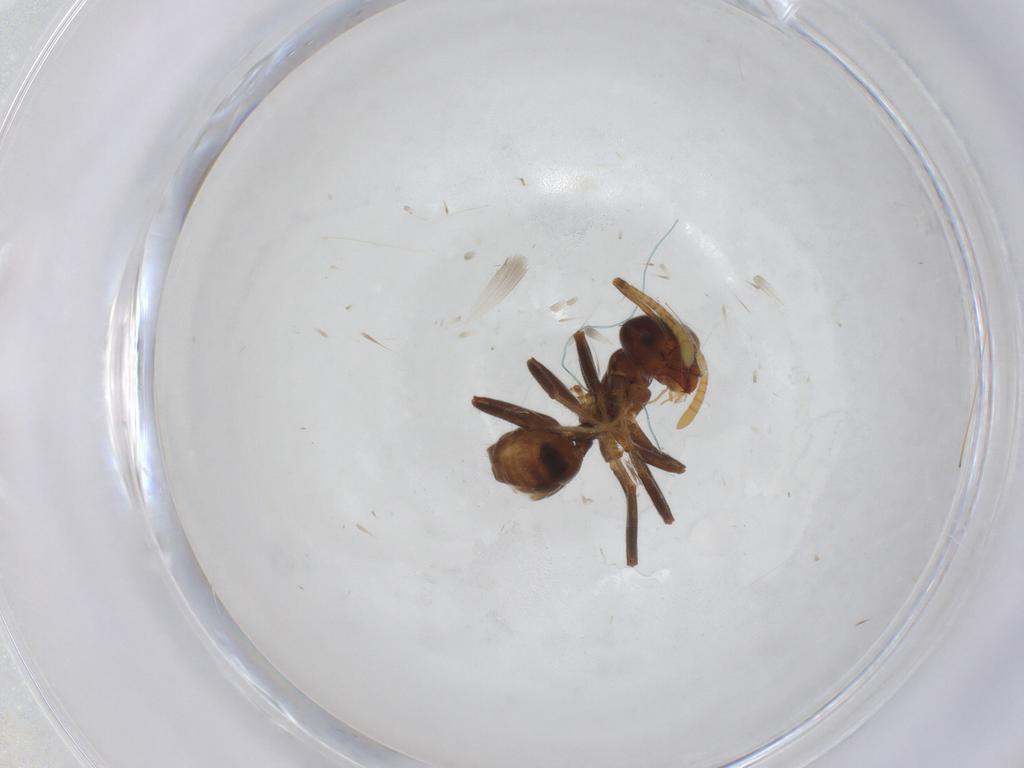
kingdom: Animalia
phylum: Arthropoda
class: Insecta
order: Hymenoptera
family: Formicidae
